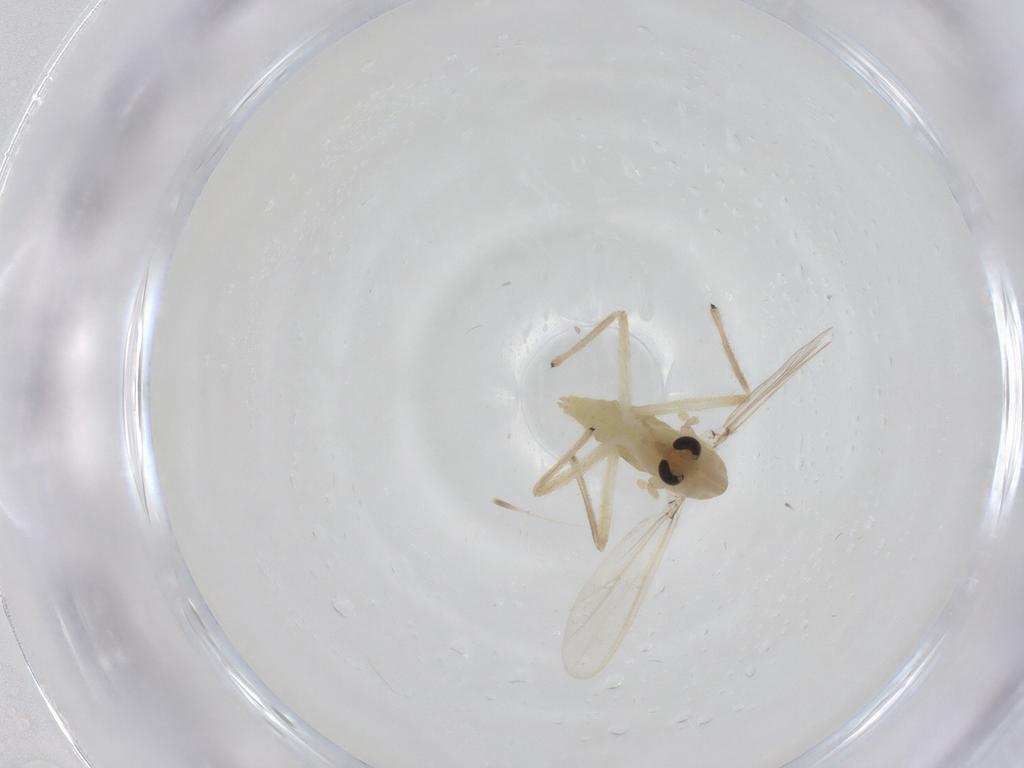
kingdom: Animalia
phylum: Arthropoda
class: Insecta
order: Diptera
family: Chironomidae
